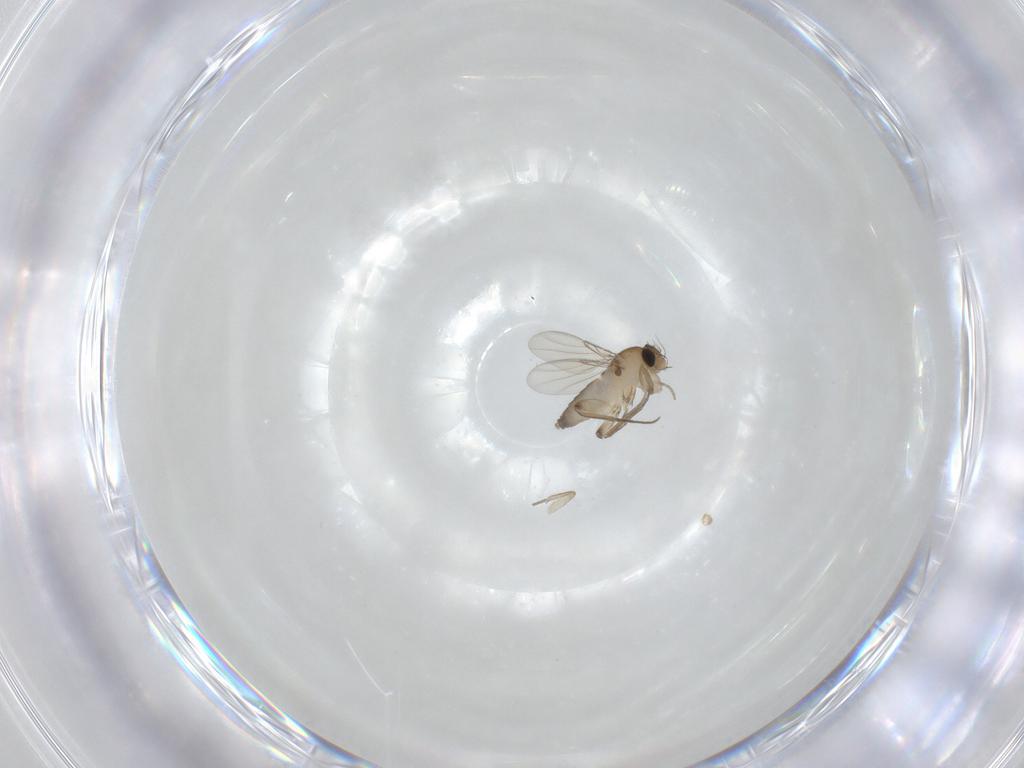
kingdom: Animalia
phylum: Arthropoda
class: Insecta
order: Diptera
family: Phoridae
